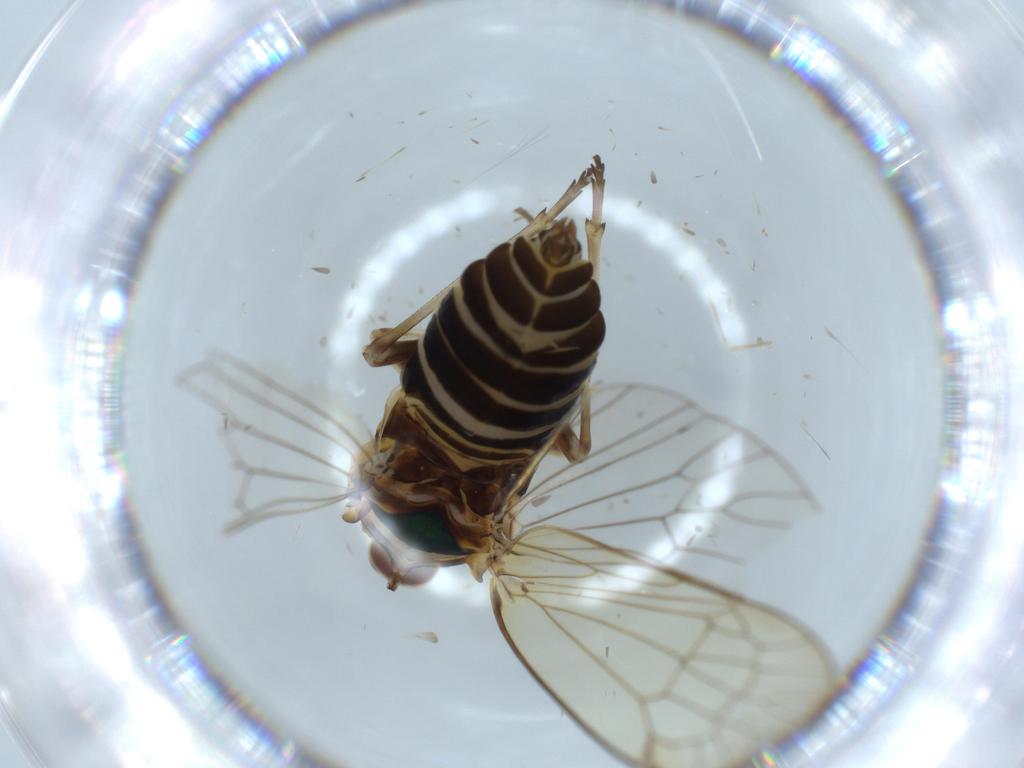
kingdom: Animalia
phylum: Arthropoda
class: Insecta
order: Hemiptera
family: Kinnaridae
